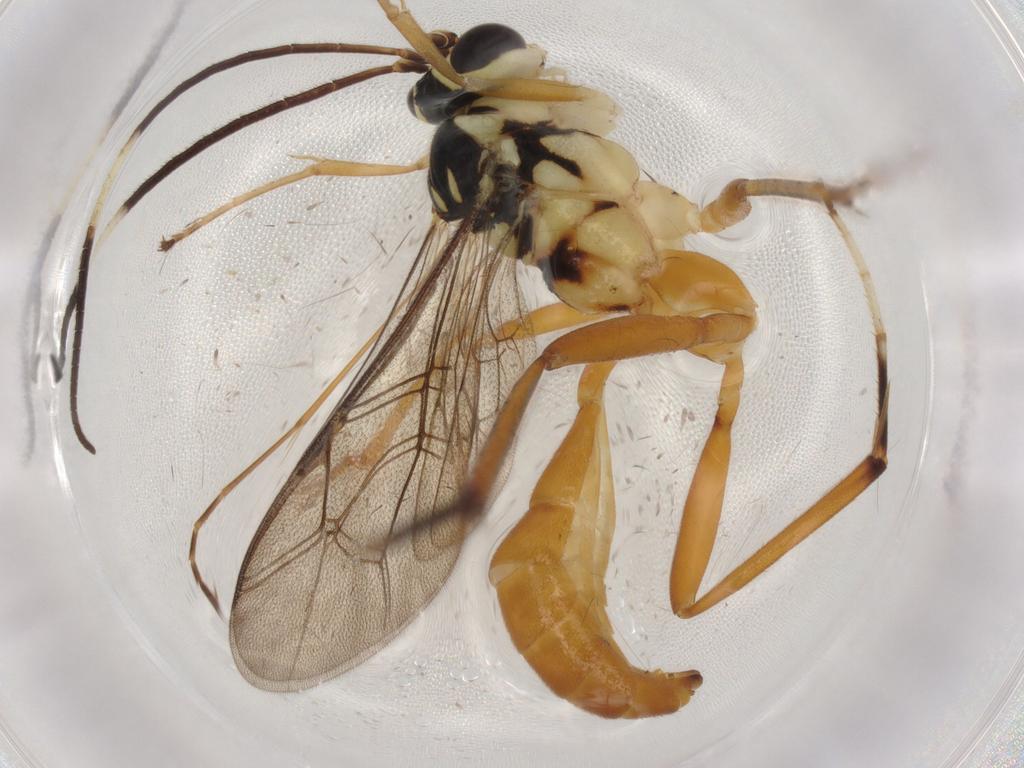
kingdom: Animalia
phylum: Arthropoda
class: Insecta
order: Hymenoptera
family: Ichneumonidae
